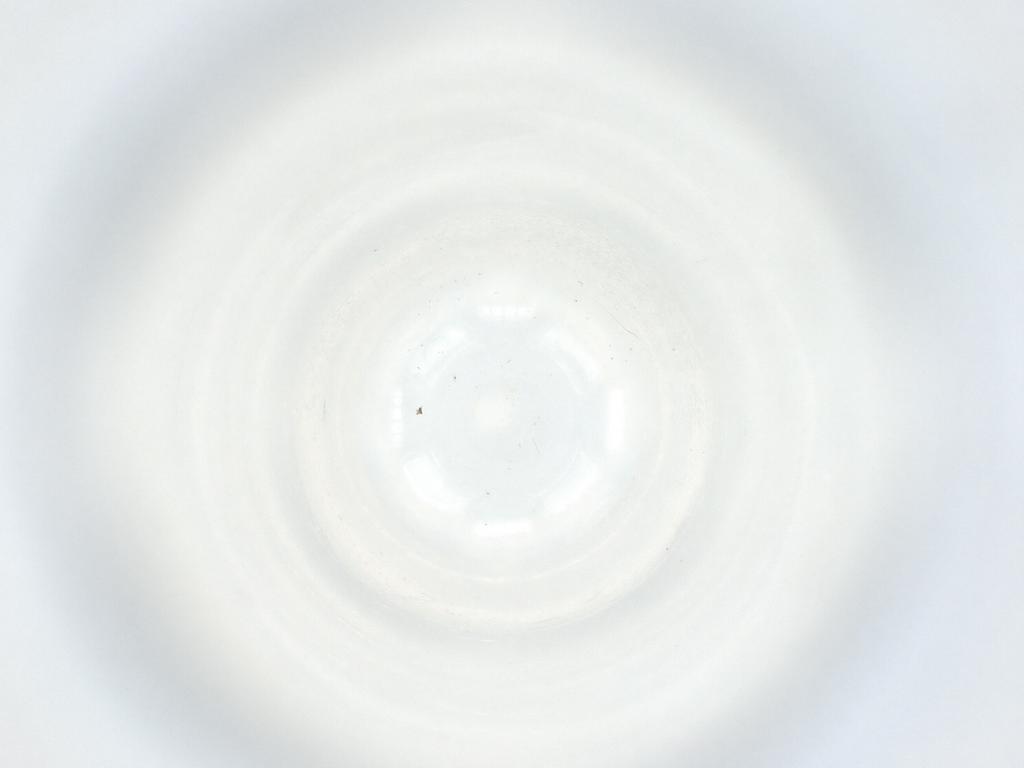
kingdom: Animalia
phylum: Arthropoda
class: Collembola
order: Entomobryomorpha
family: Entomobryidae
